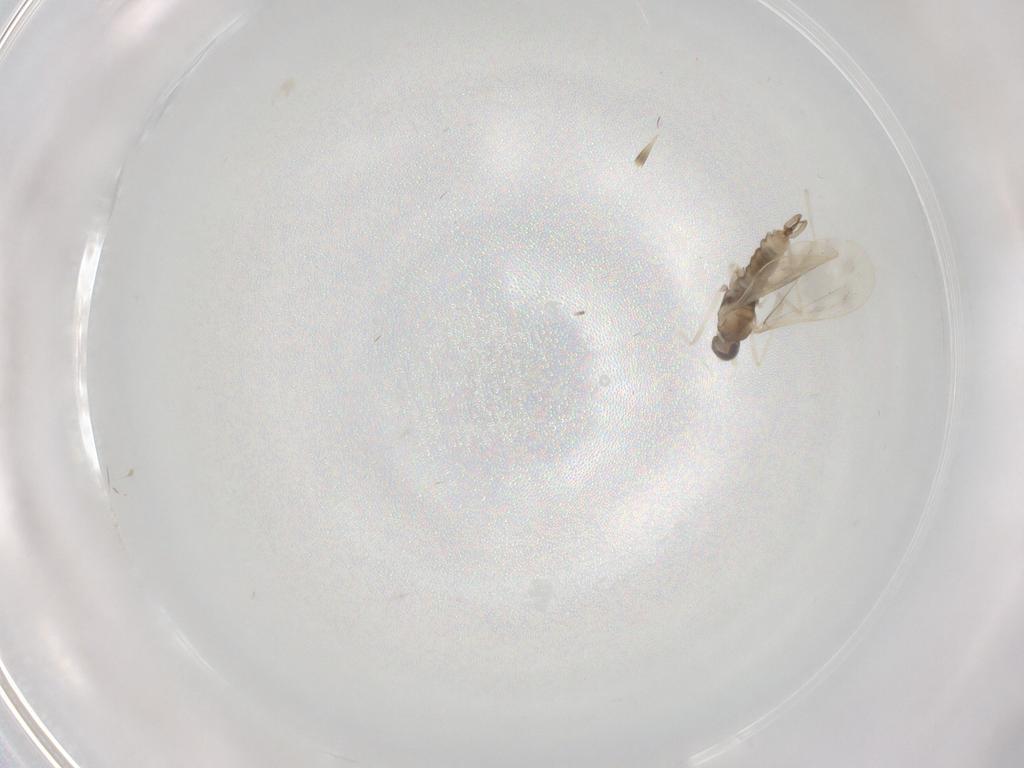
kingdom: Animalia
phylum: Arthropoda
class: Insecta
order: Diptera
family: Cecidomyiidae
